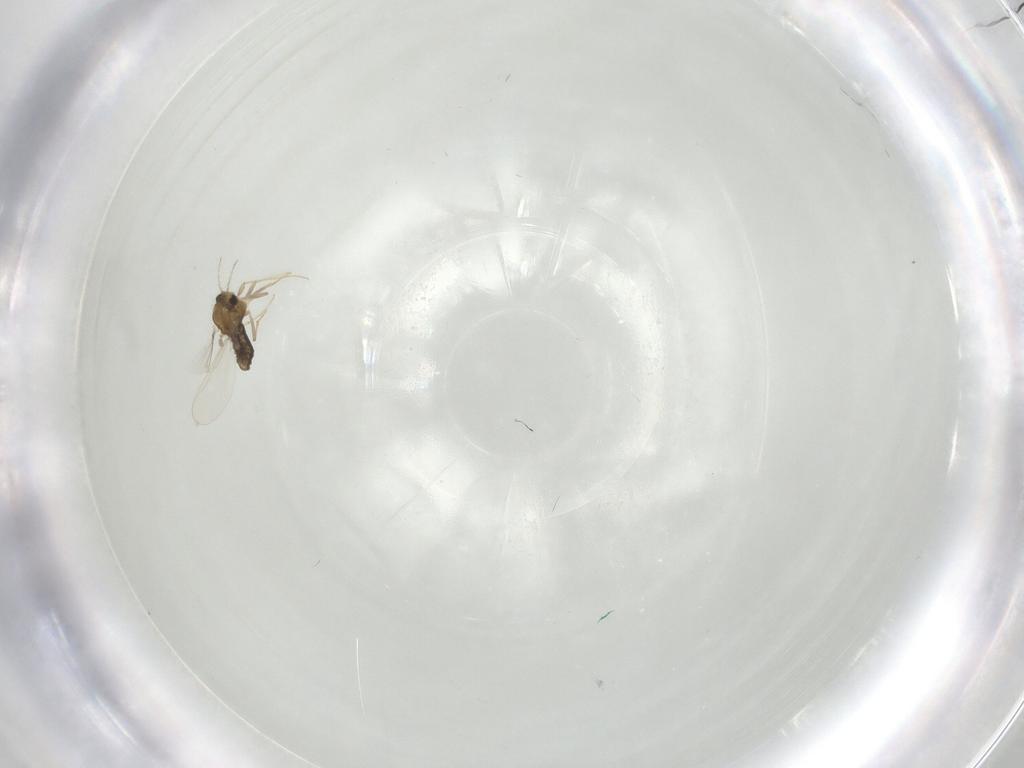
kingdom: Animalia
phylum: Arthropoda
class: Insecta
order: Diptera
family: Chironomidae
